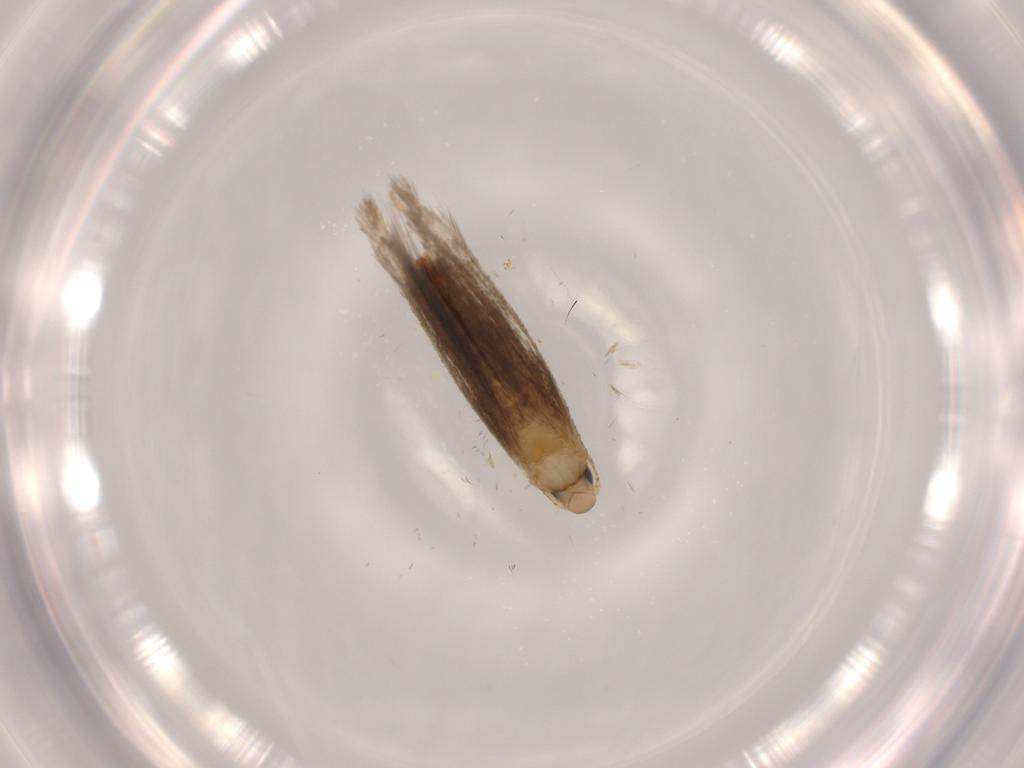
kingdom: Animalia
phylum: Arthropoda
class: Insecta
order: Lepidoptera
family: Tischeriidae
